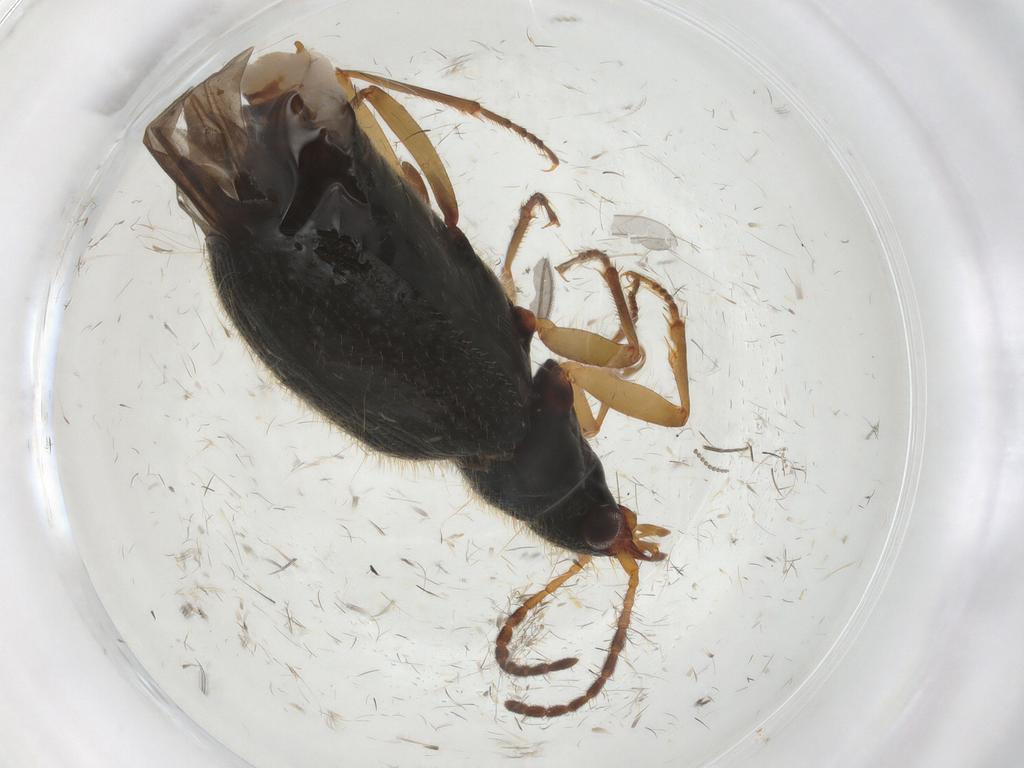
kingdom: Animalia
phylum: Arthropoda
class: Insecta
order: Coleoptera
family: Carabidae
